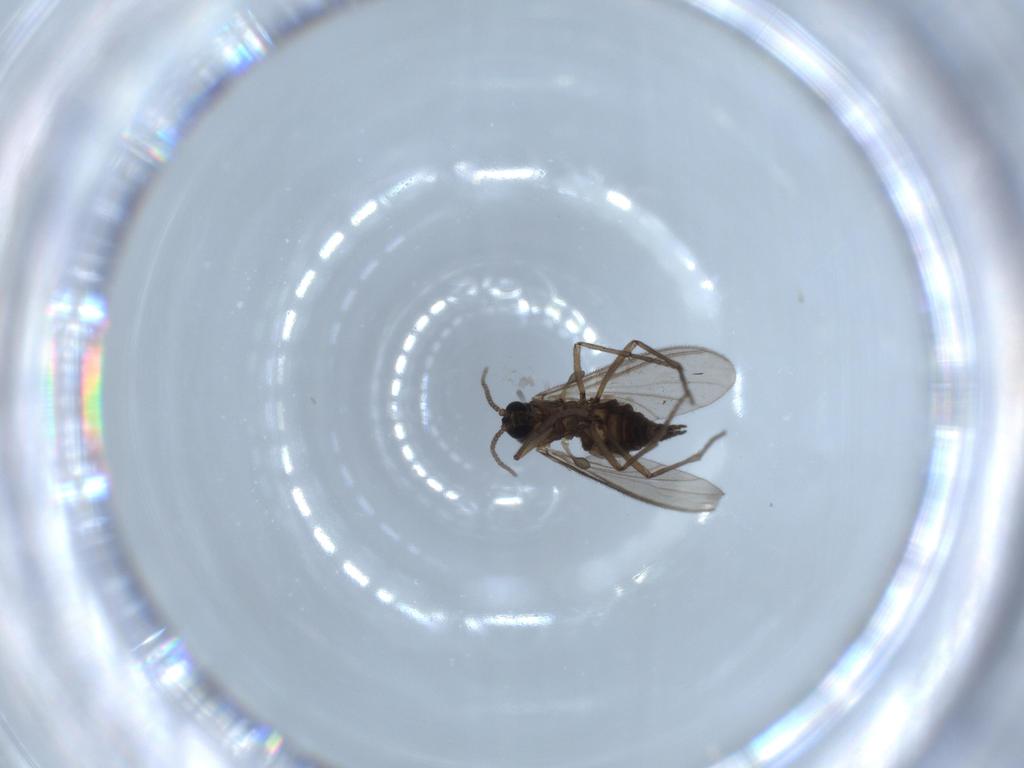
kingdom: Animalia
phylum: Arthropoda
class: Insecta
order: Diptera
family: Sciaridae
